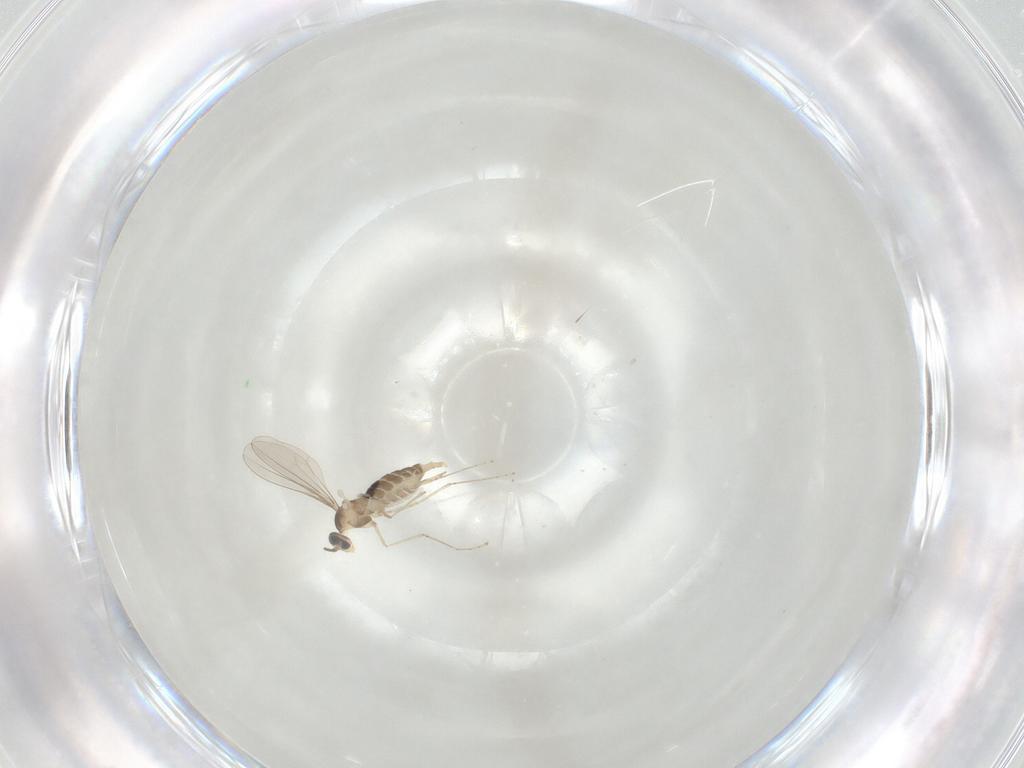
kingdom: Animalia
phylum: Arthropoda
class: Insecta
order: Diptera
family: Cecidomyiidae
